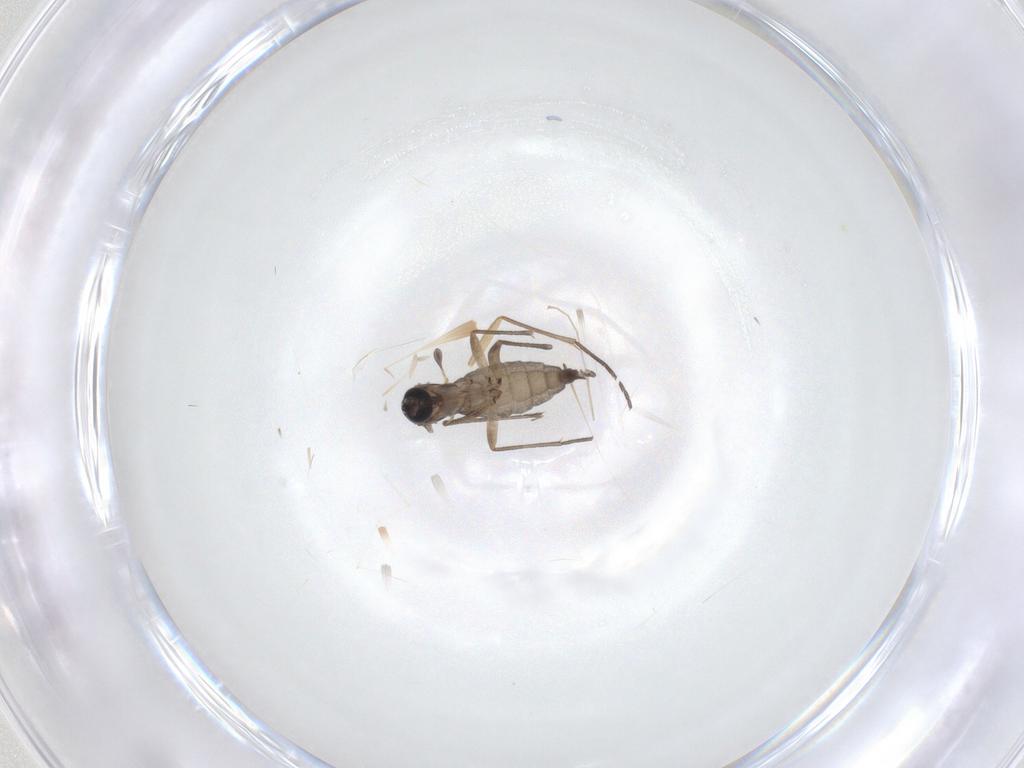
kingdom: Animalia
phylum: Arthropoda
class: Insecta
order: Diptera
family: Sciaridae
